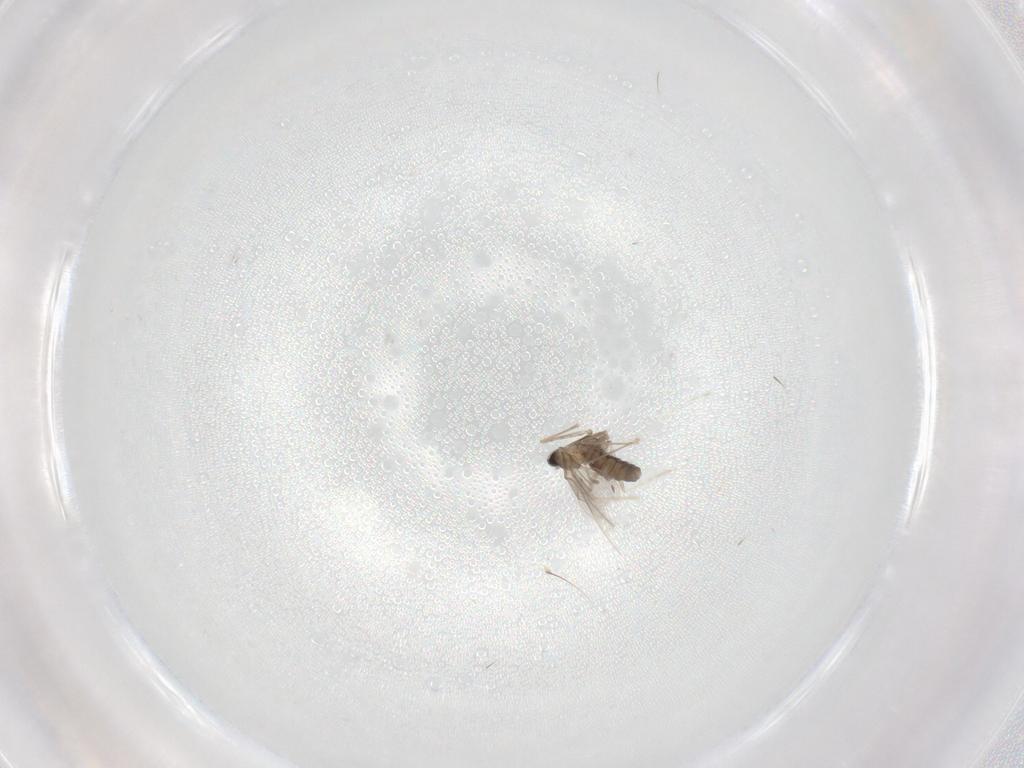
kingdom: Animalia
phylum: Arthropoda
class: Insecta
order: Diptera
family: Cecidomyiidae
